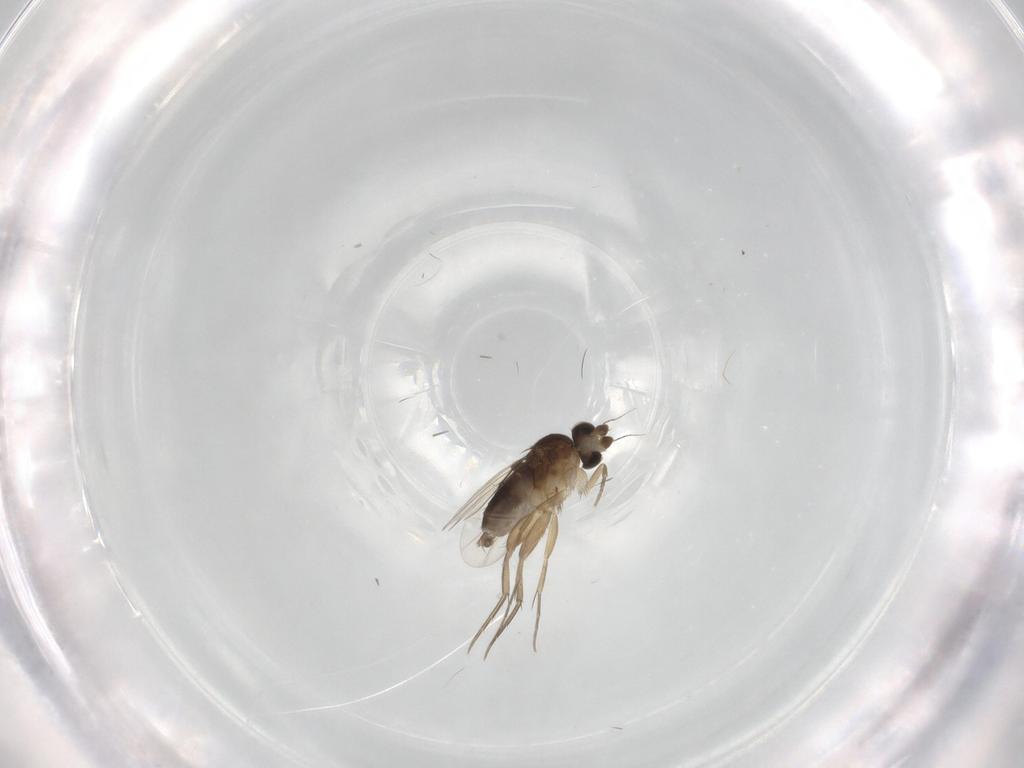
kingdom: Animalia
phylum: Arthropoda
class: Insecta
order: Diptera
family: Phoridae
